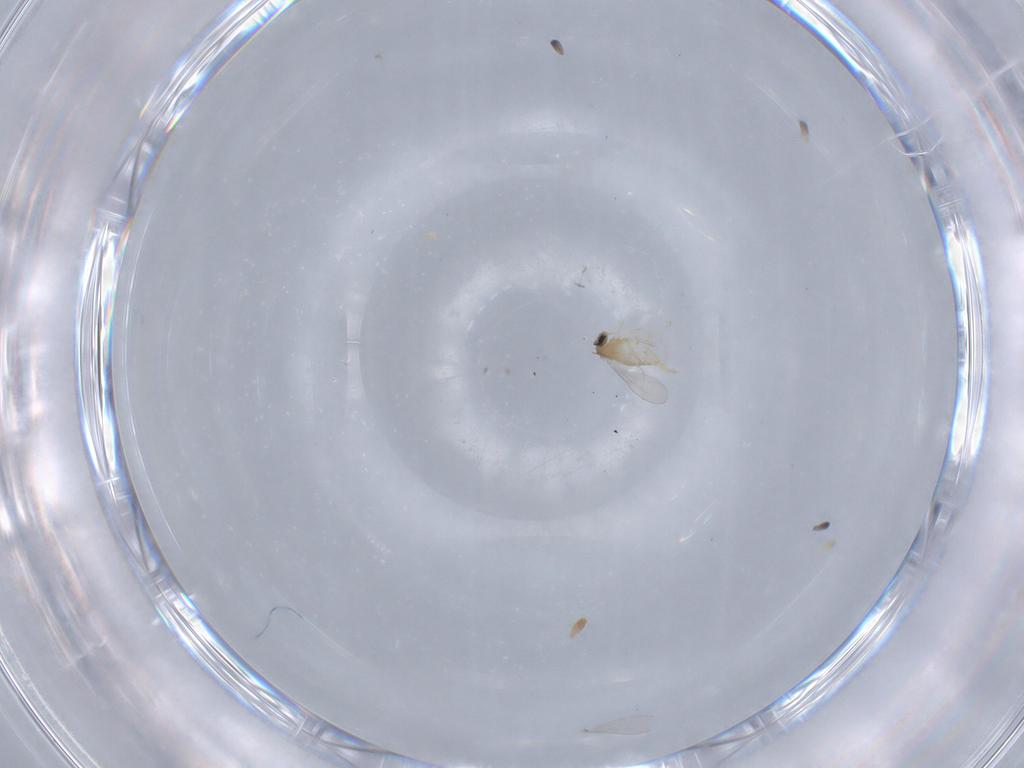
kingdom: Animalia
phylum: Arthropoda
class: Insecta
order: Diptera
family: Cecidomyiidae
